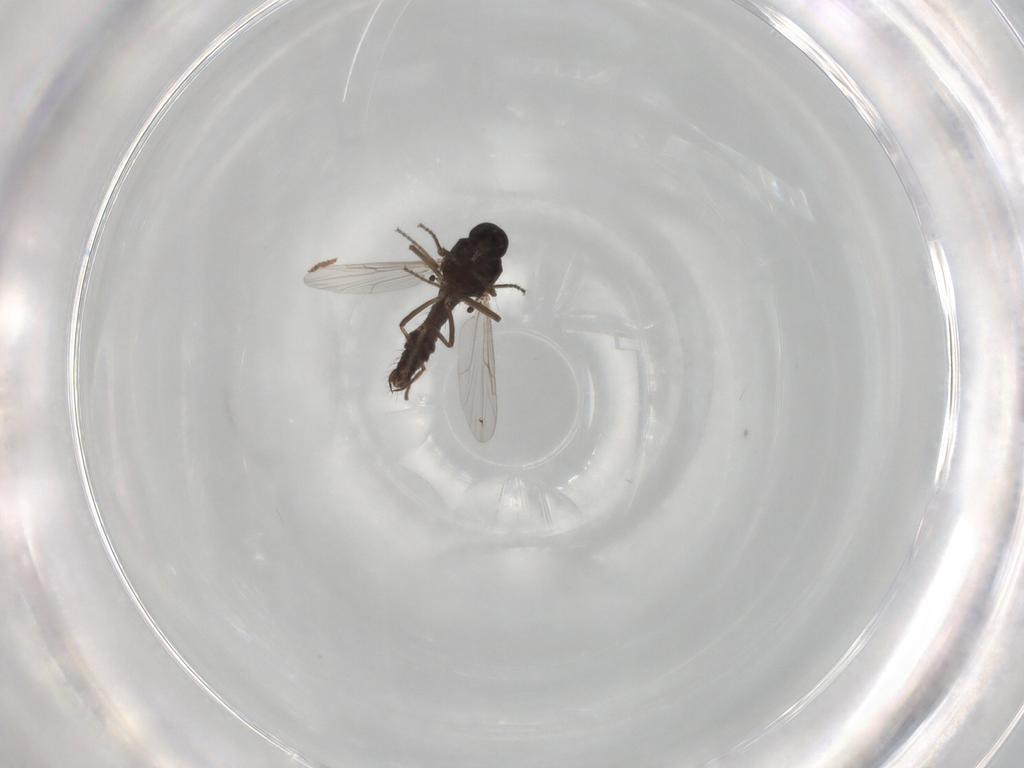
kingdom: Animalia
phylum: Arthropoda
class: Insecta
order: Diptera
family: Ceratopogonidae
